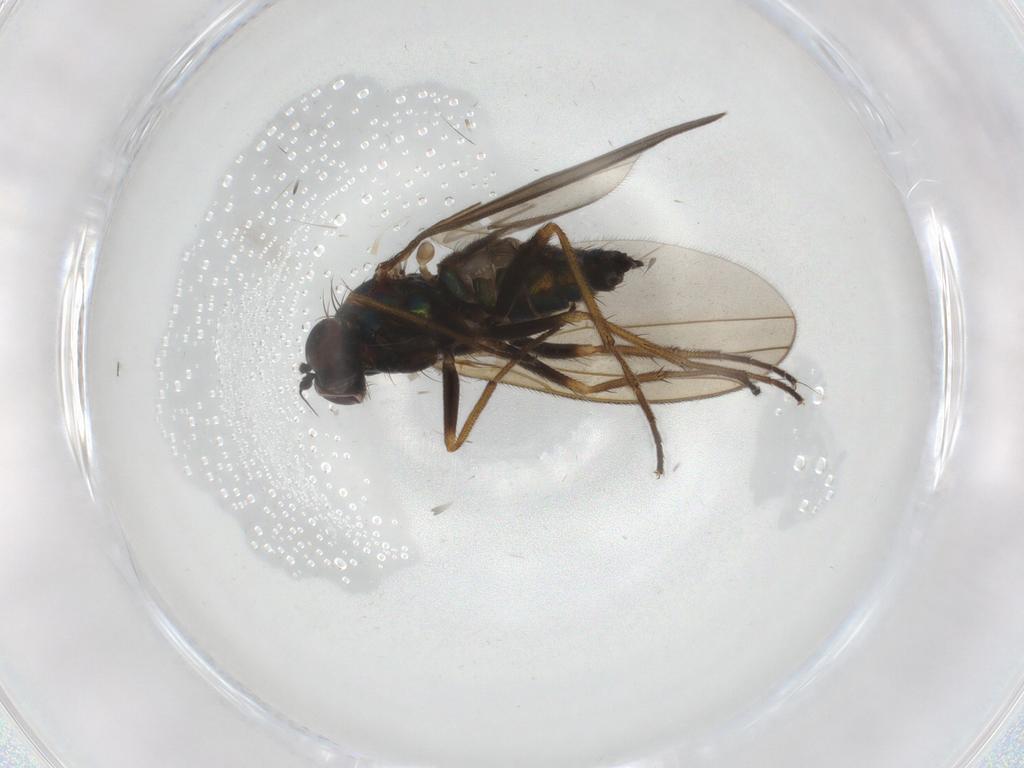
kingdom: Animalia
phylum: Arthropoda
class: Insecta
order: Diptera
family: Dolichopodidae
